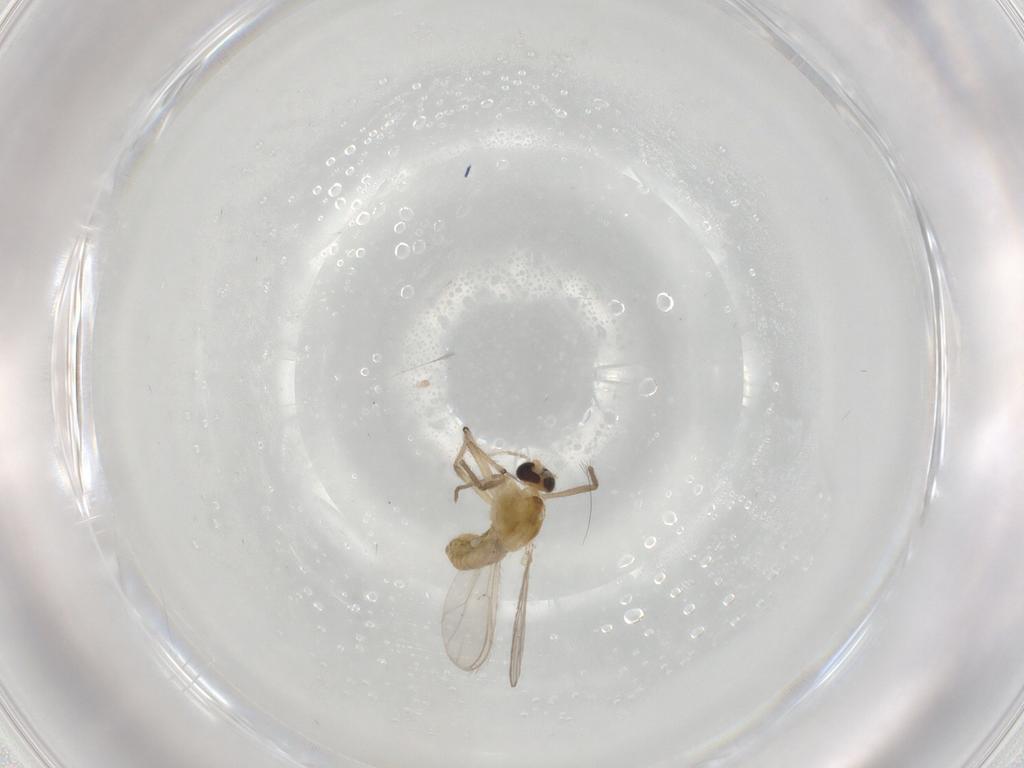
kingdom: Animalia
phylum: Arthropoda
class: Insecta
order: Diptera
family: Chironomidae
